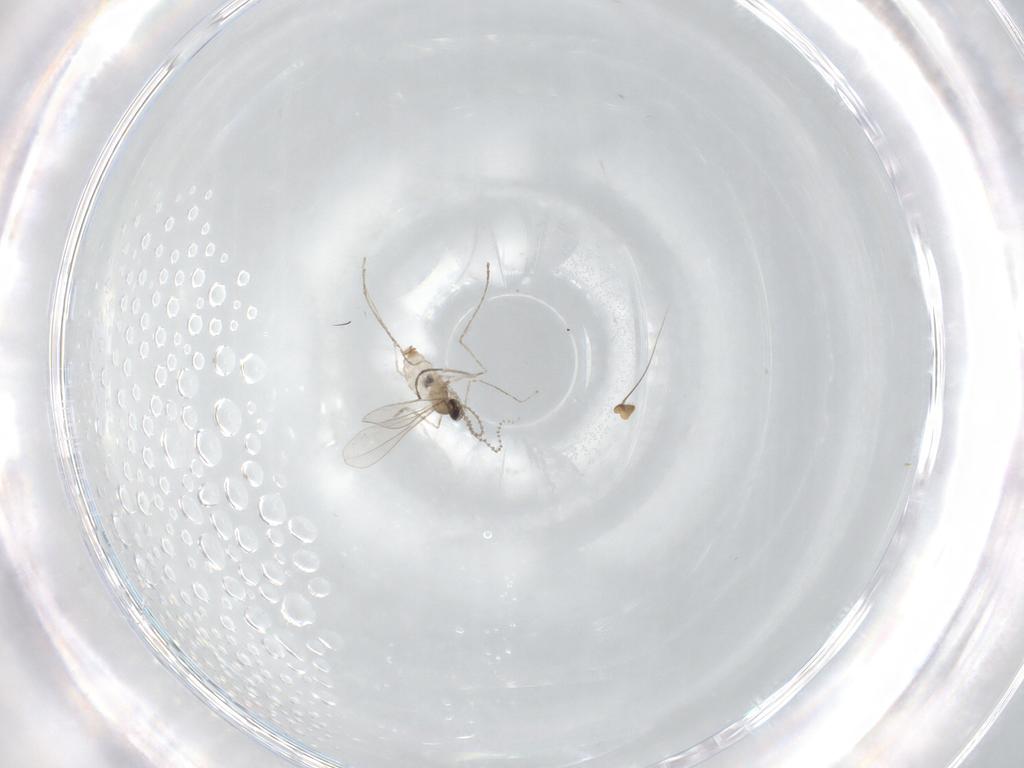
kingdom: Animalia
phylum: Arthropoda
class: Insecta
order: Diptera
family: Cecidomyiidae
